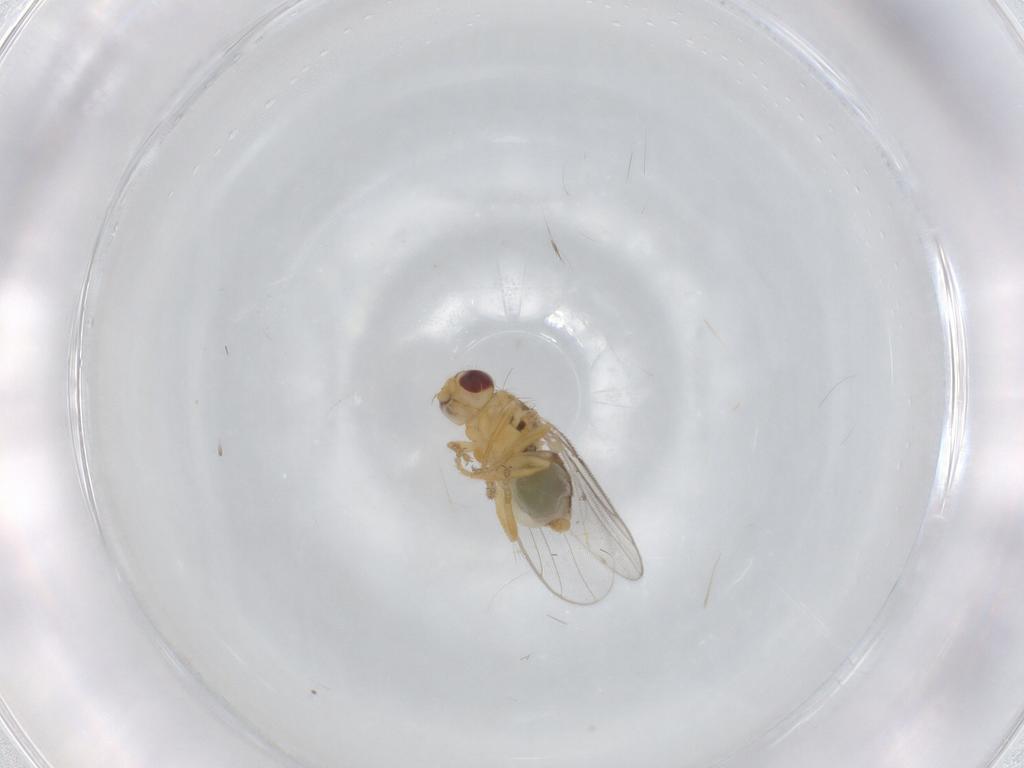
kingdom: Animalia
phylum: Arthropoda
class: Insecta
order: Diptera
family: Chloropidae
